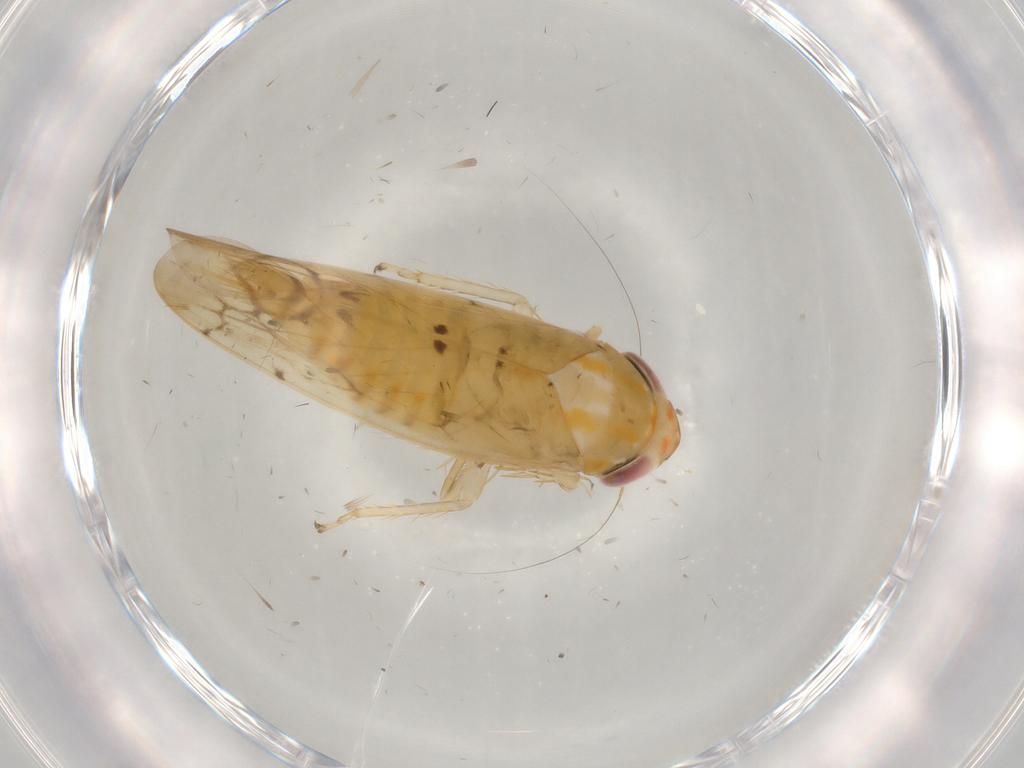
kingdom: Animalia
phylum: Arthropoda
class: Insecta
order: Hemiptera
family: Cicadellidae
